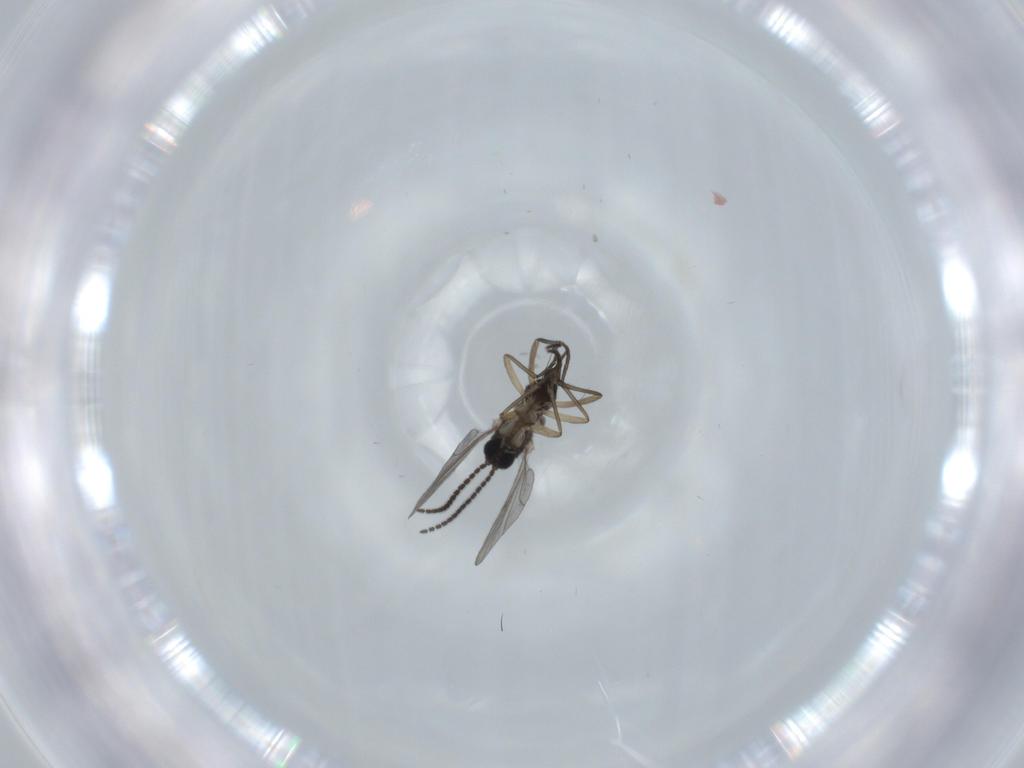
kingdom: Animalia
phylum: Arthropoda
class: Insecta
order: Diptera
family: Sciaridae
